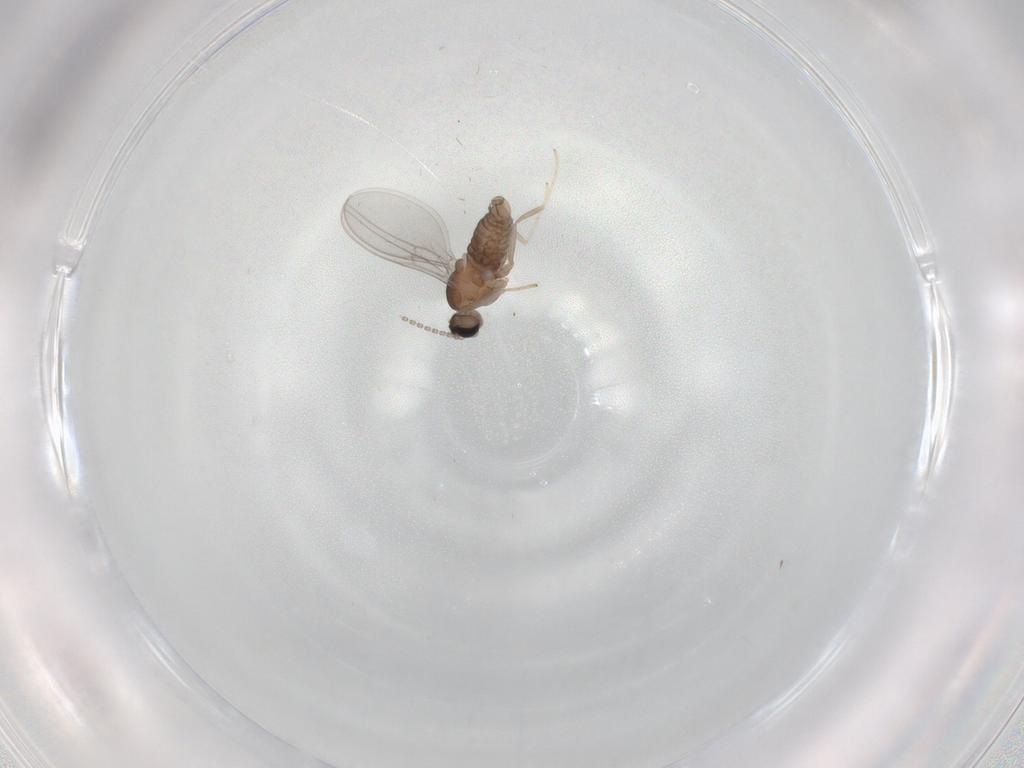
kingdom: Animalia
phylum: Arthropoda
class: Insecta
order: Diptera
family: Cecidomyiidae
